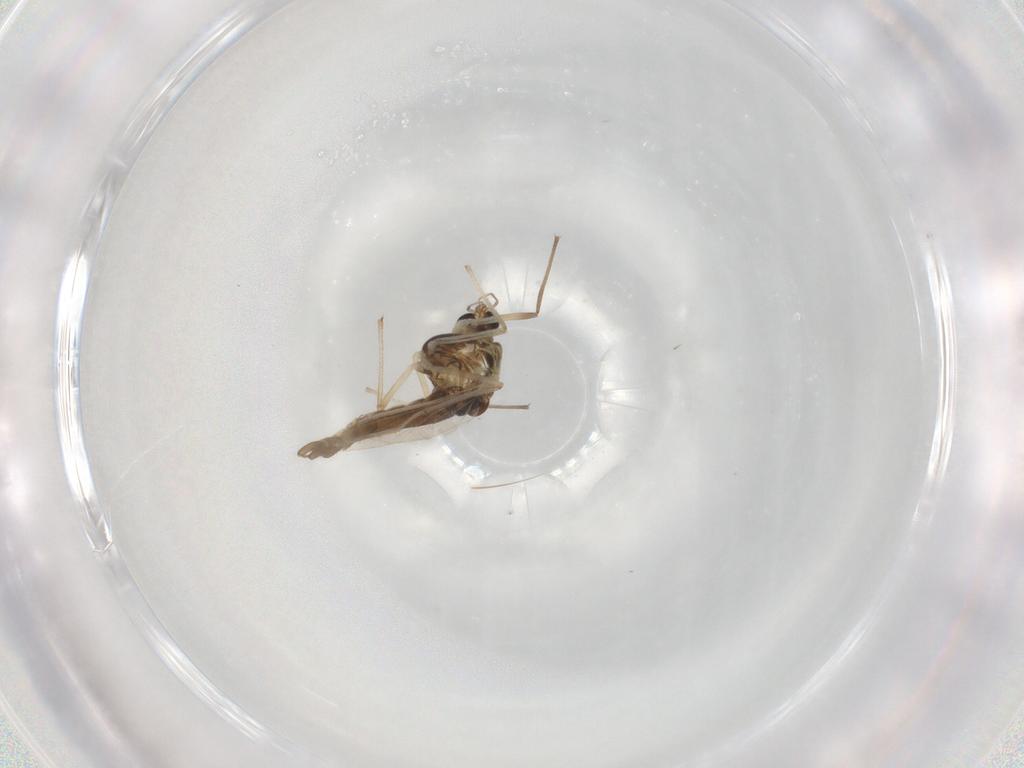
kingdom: Animalia
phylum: Arthropoda
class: Insecta
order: Diptera
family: Chironomidae
